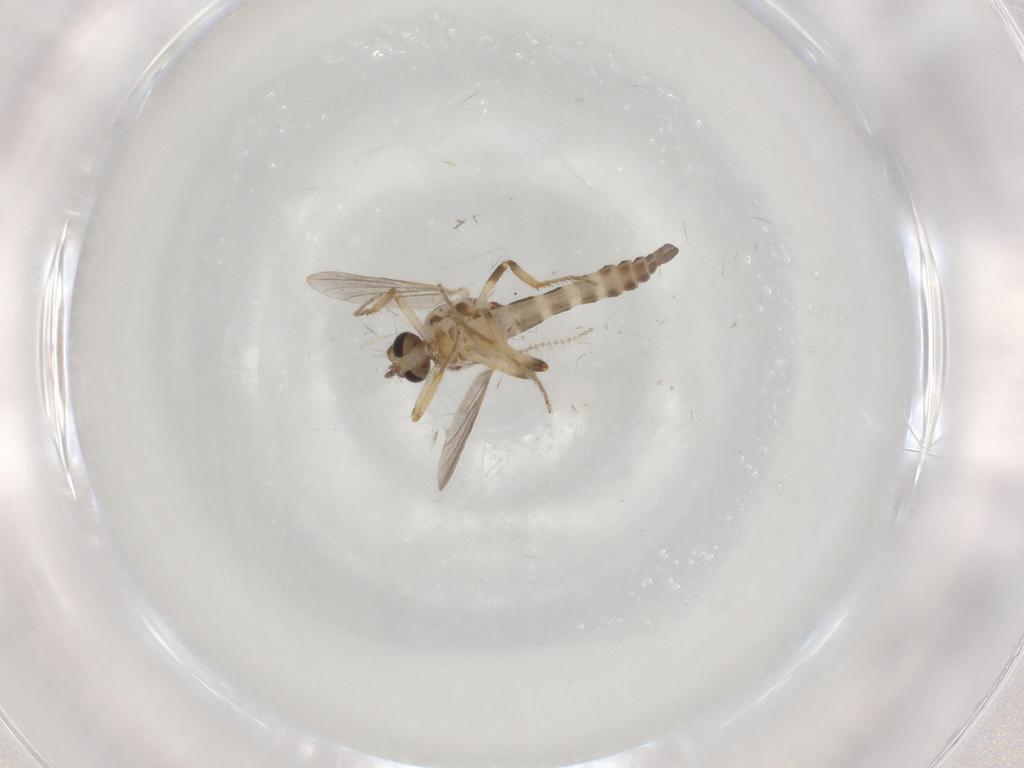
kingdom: Animalia
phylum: Arthropoda
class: Insecta
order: Diptera
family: Ceratopogonidae
